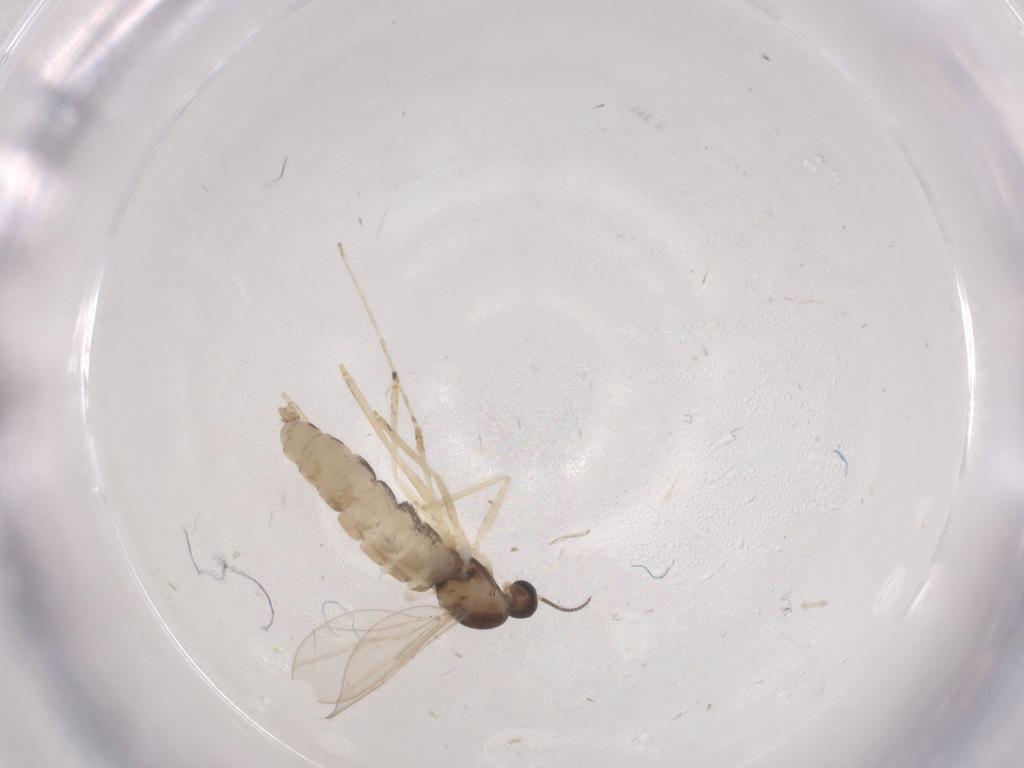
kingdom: Animalia
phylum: Arthropoda
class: Insecta
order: Diptera
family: Cecidomyiidae
